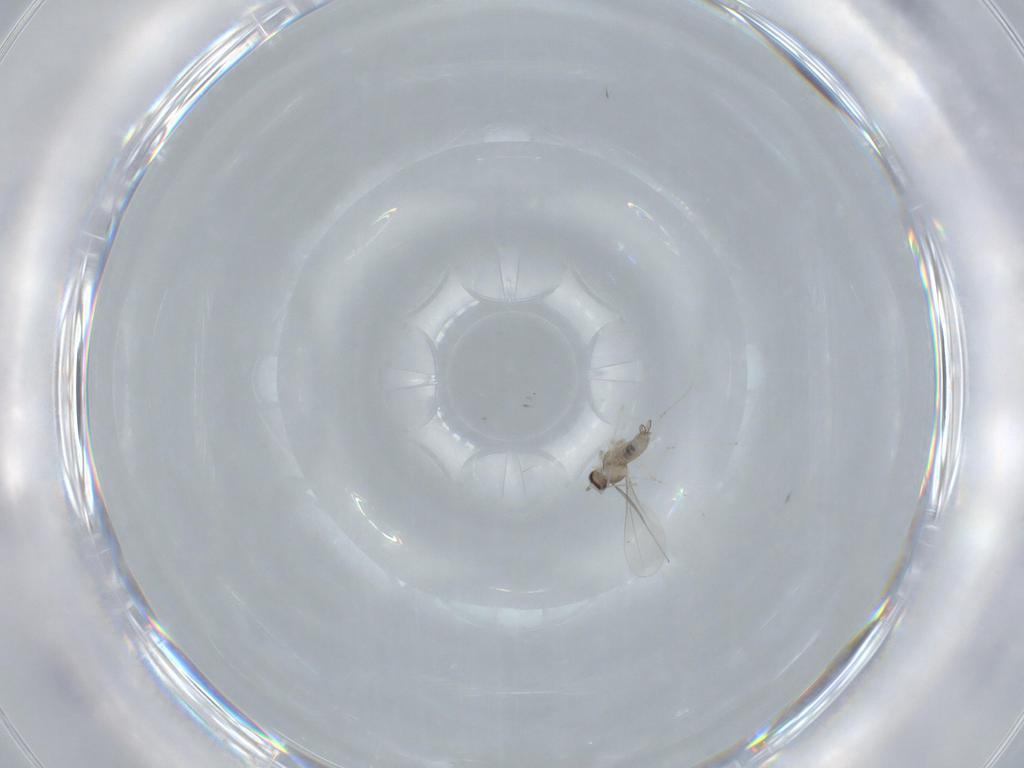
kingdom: Animalia
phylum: Arthropoda
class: Insecta
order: Diptera
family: Cecidomyiidae
